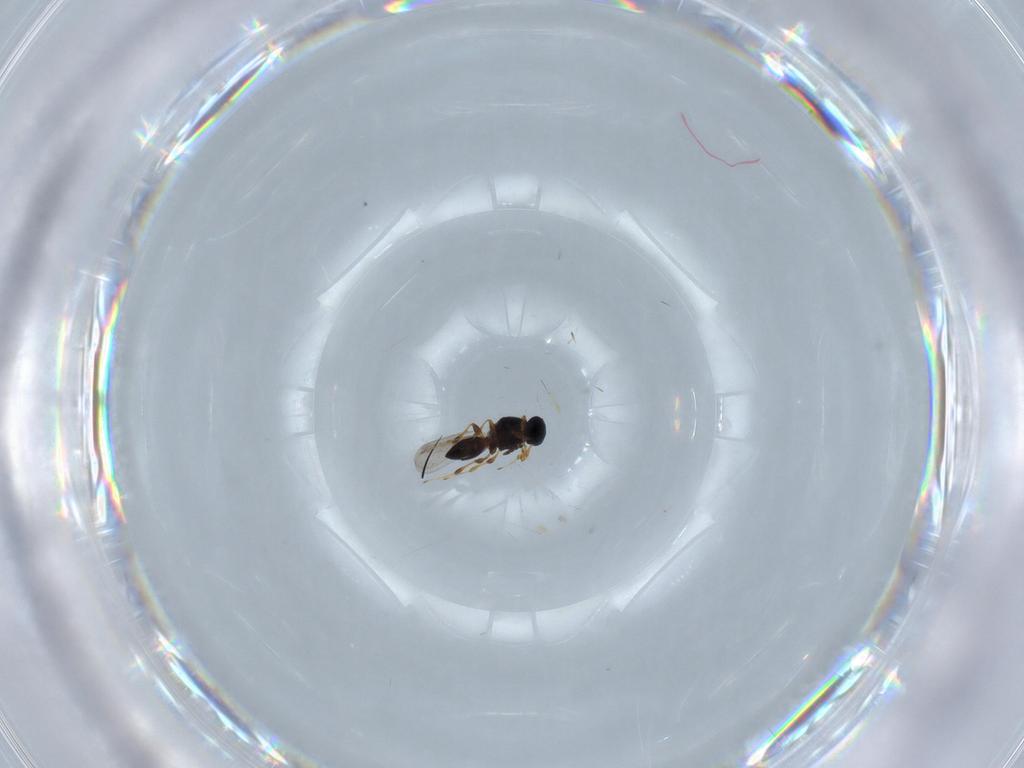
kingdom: Animalia
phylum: Arthropoda
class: Insecta
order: Hymenoptera
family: Platygastridae
